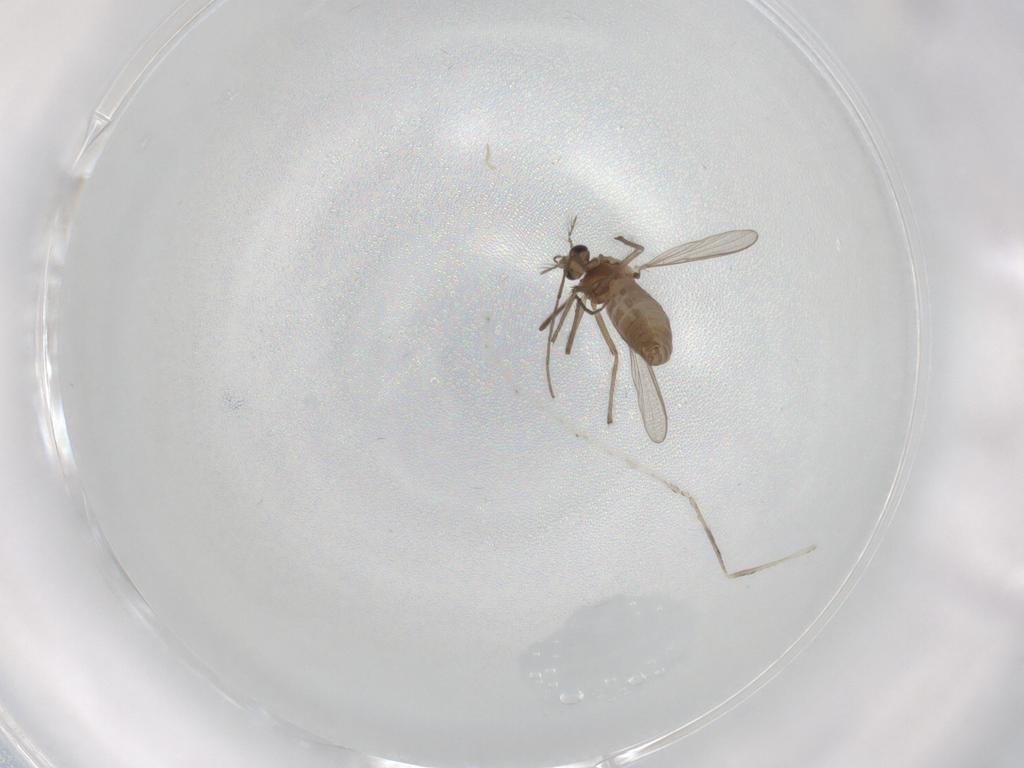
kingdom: Animalia
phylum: Arthropoda
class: Insecta
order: Diptera
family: Cecidomyiidae
